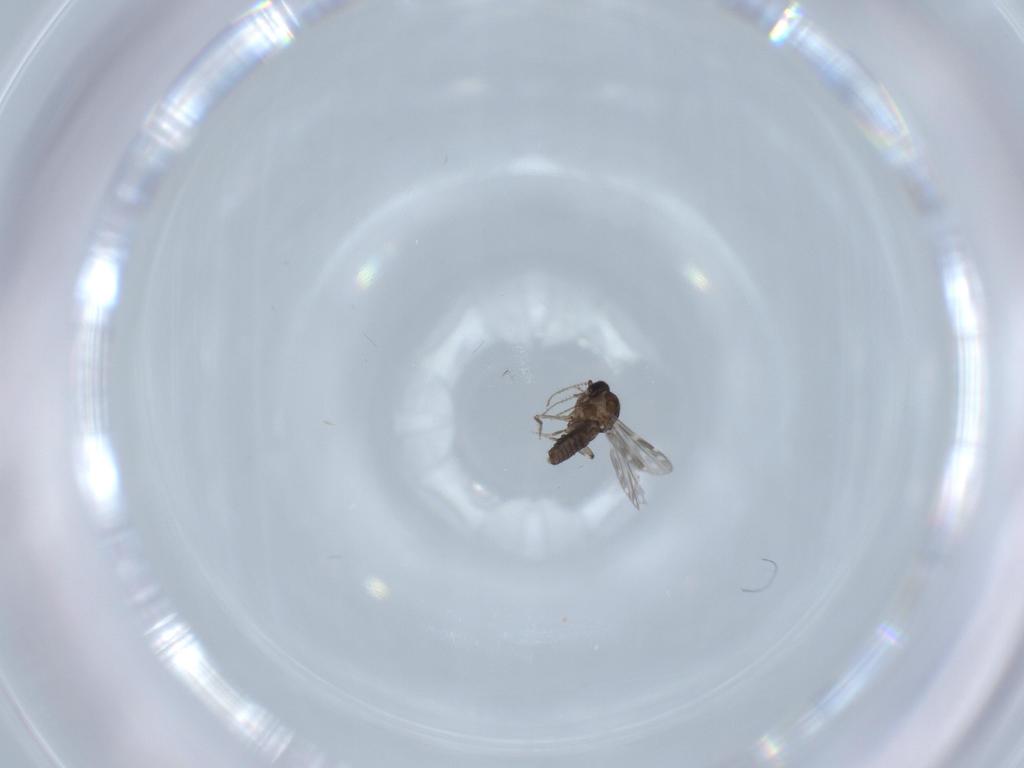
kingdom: Animalia
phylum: Arthropoda
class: Insecta
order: Diptera
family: Ceratopogonidae
